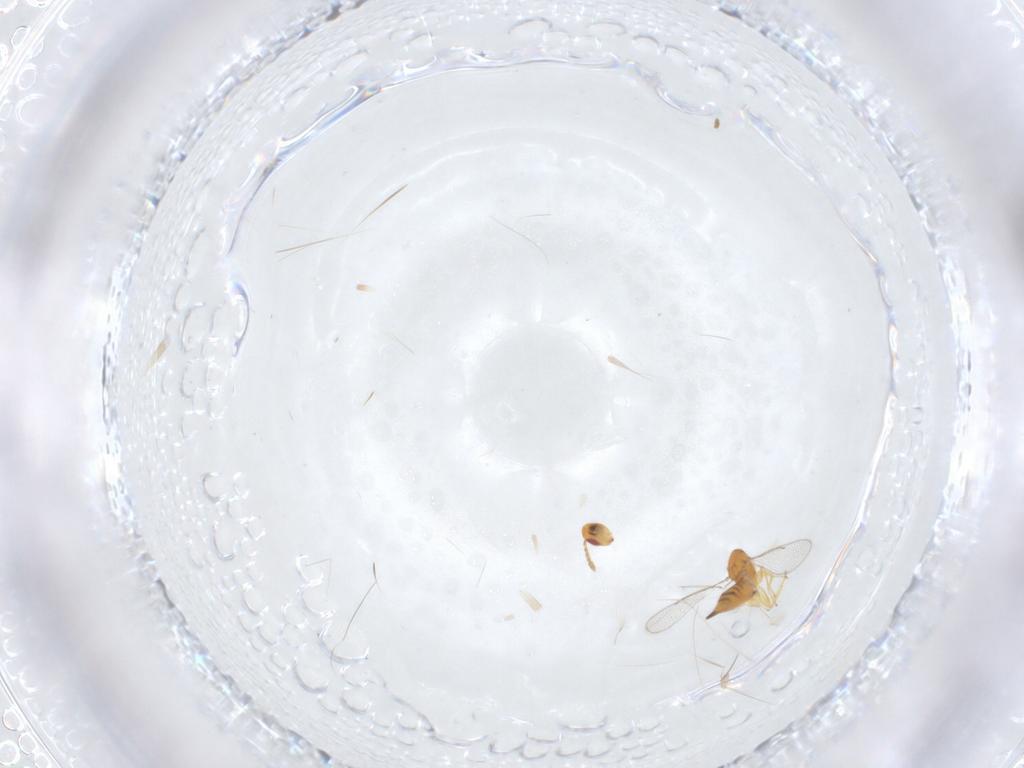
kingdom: Animalia
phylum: Arthropoda
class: Insecta
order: Hymenoptera
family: Eulophidae
